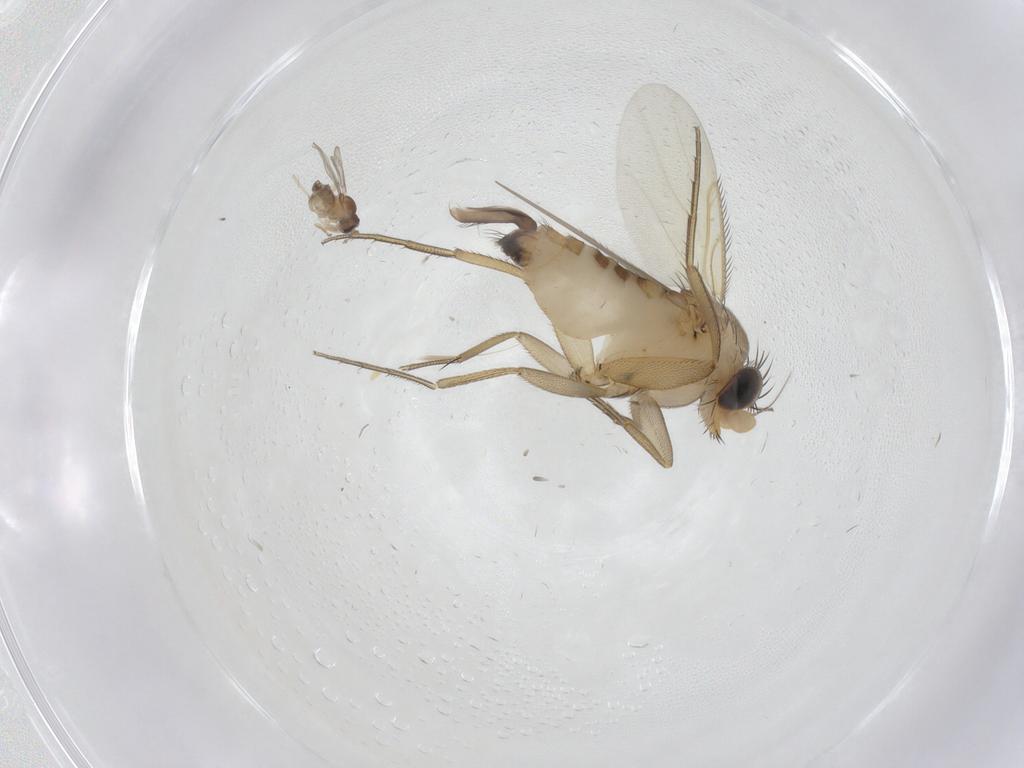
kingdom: Animalia
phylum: Arthropoda
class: Insecta
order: Diptera
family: Phoridae
